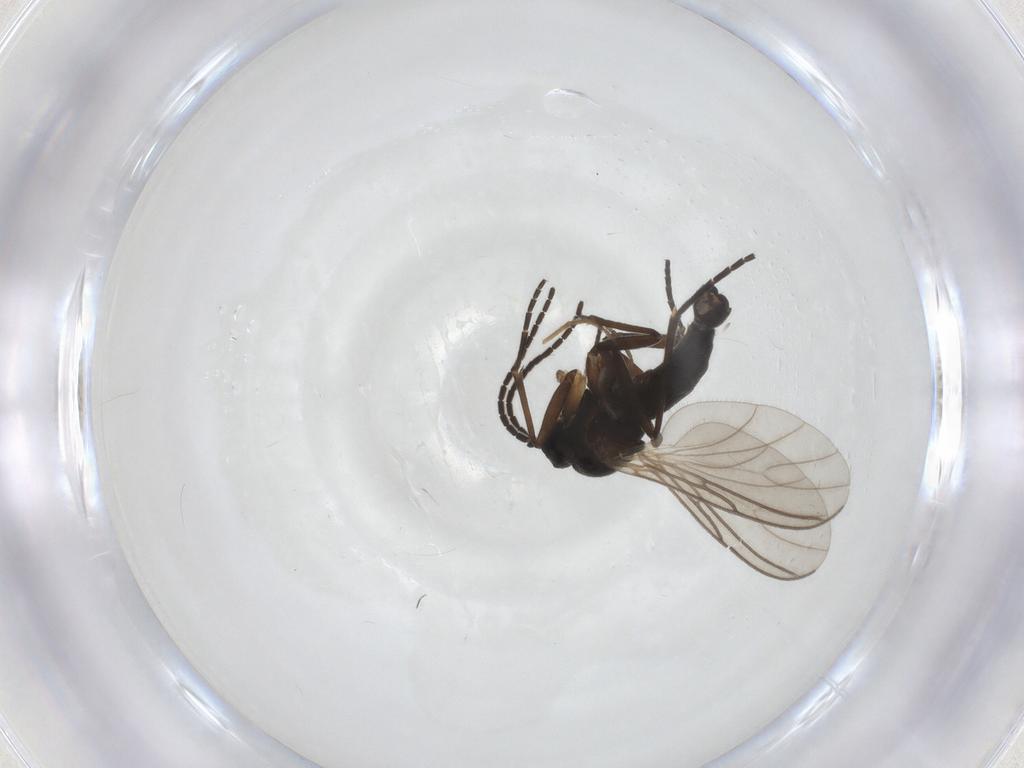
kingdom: Animalia
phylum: Arthropoda
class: Insecta
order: Diptera
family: Sciaridae
